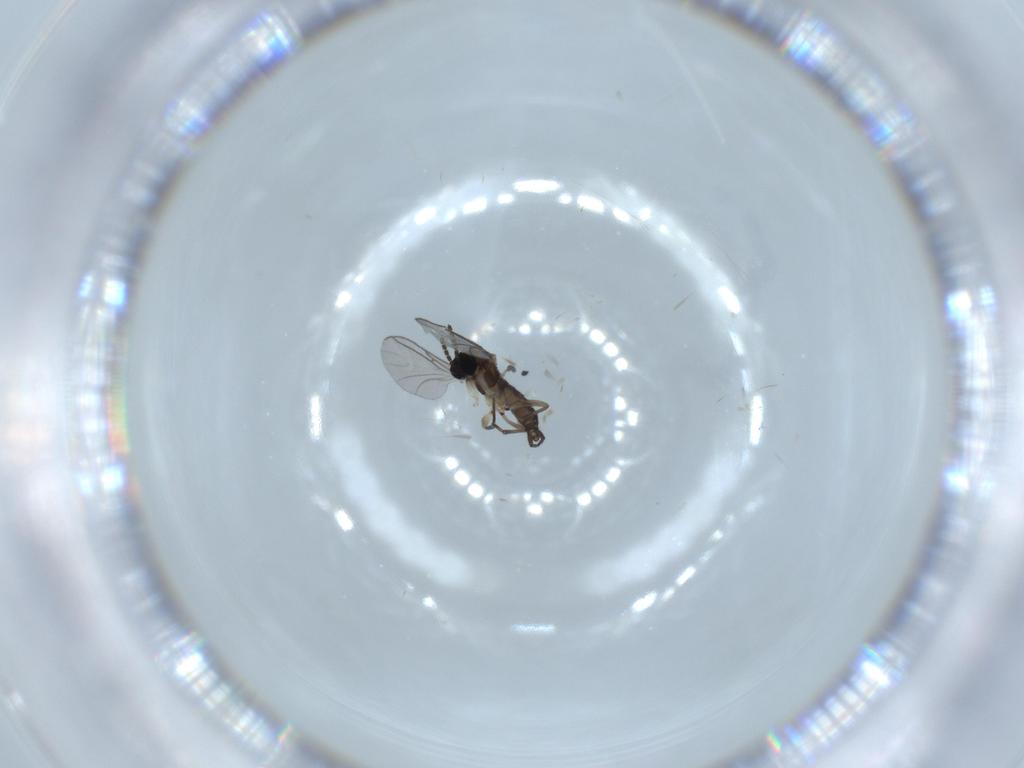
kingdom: Animalia
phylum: Arthropoda
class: Insecta
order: Diptera
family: Sciaridae
